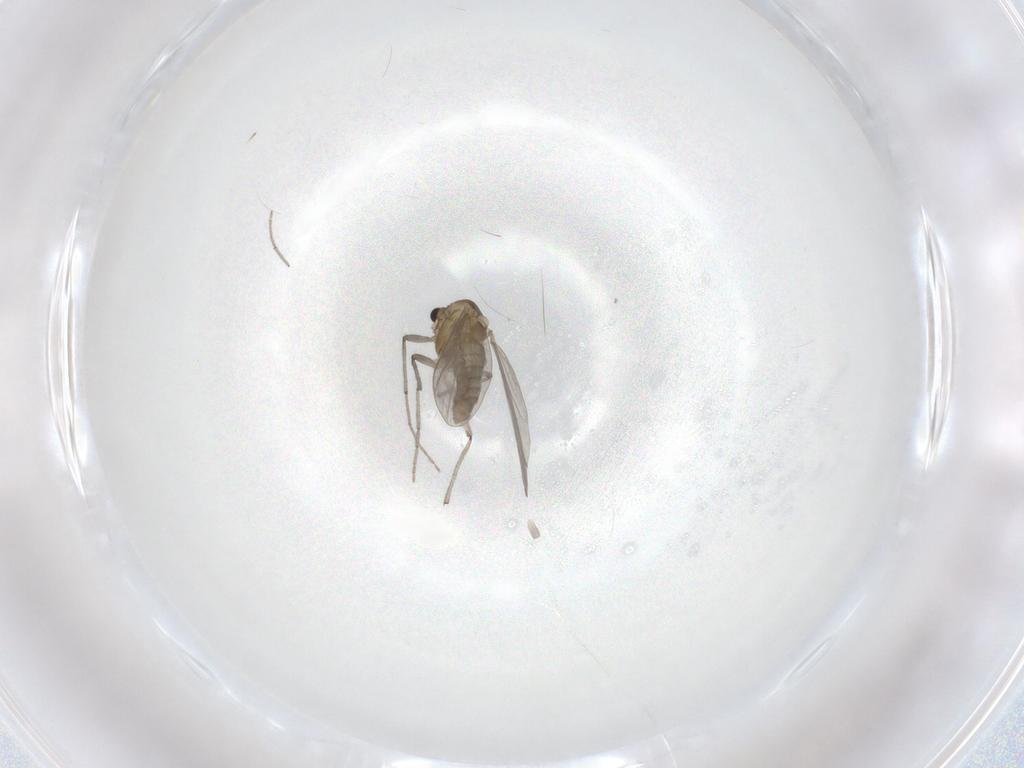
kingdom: Animalia
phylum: Arthropoda
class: Insecta
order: Diptera
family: Chironomidae
